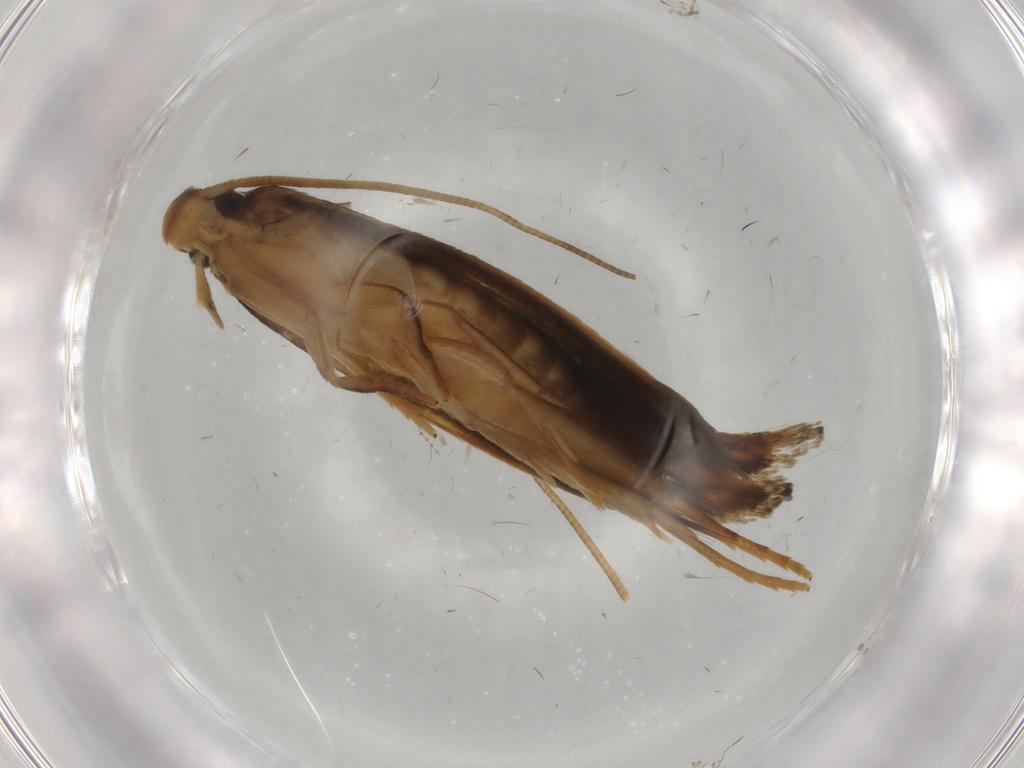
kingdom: Animalia
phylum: Arthropoda
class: Insecta
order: Lepidoptera
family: Tineidae
